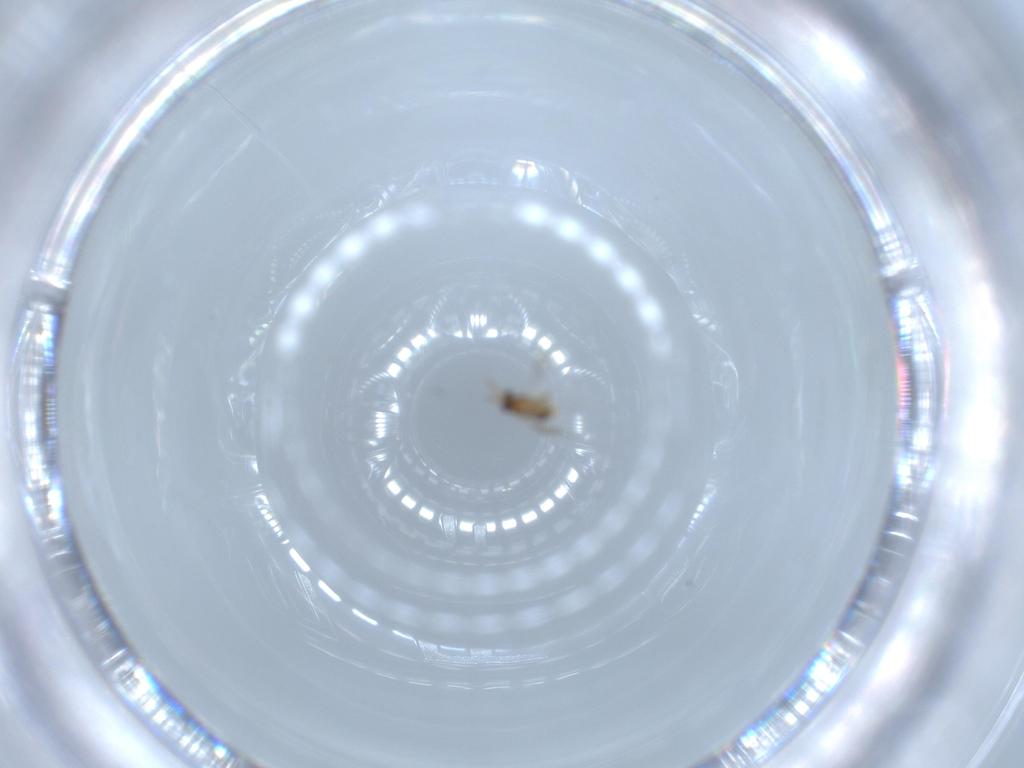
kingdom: Animalia
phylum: Arthropoda
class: Insecta
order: Hymenoptera
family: Aphelinidae
